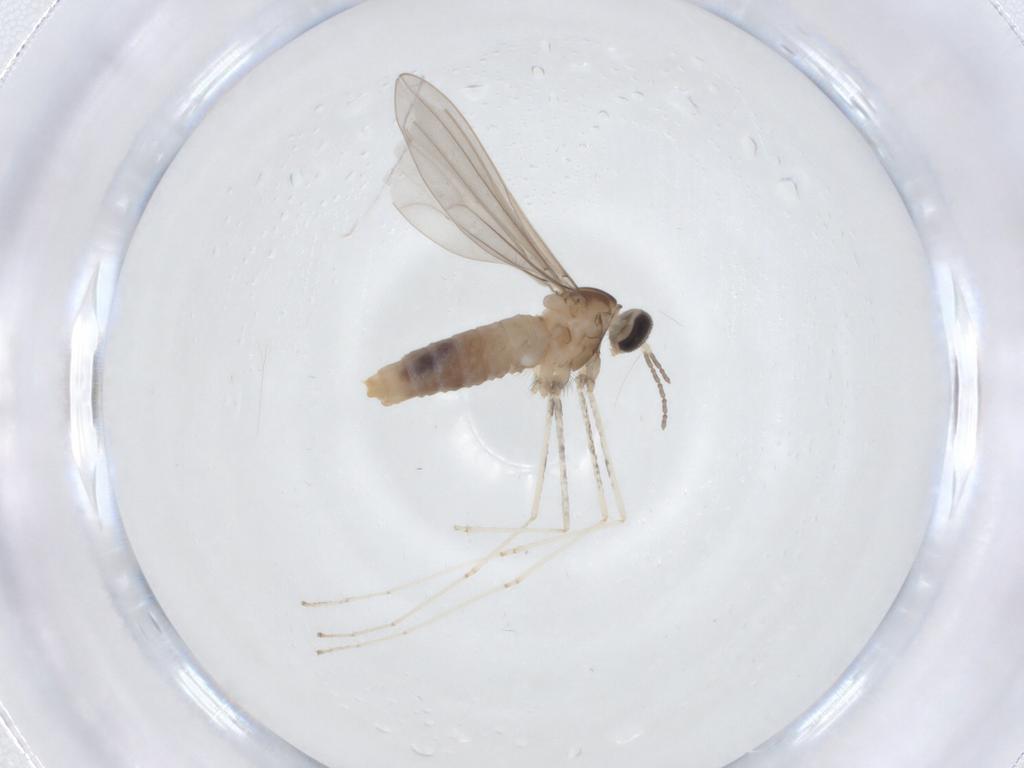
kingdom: Animalia
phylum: Arthropoda
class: Insecta
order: Diptera
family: Cecidomyiidae
